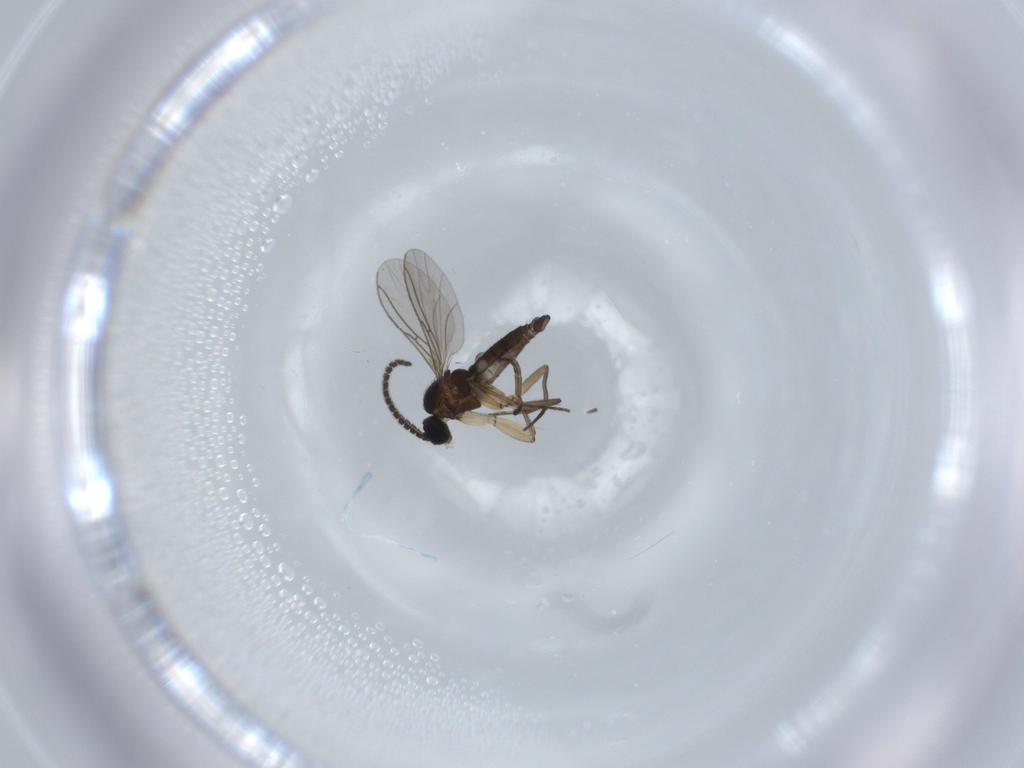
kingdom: Animalia
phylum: Arthropoda
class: Insecta
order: Diptera
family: Sciaridae
